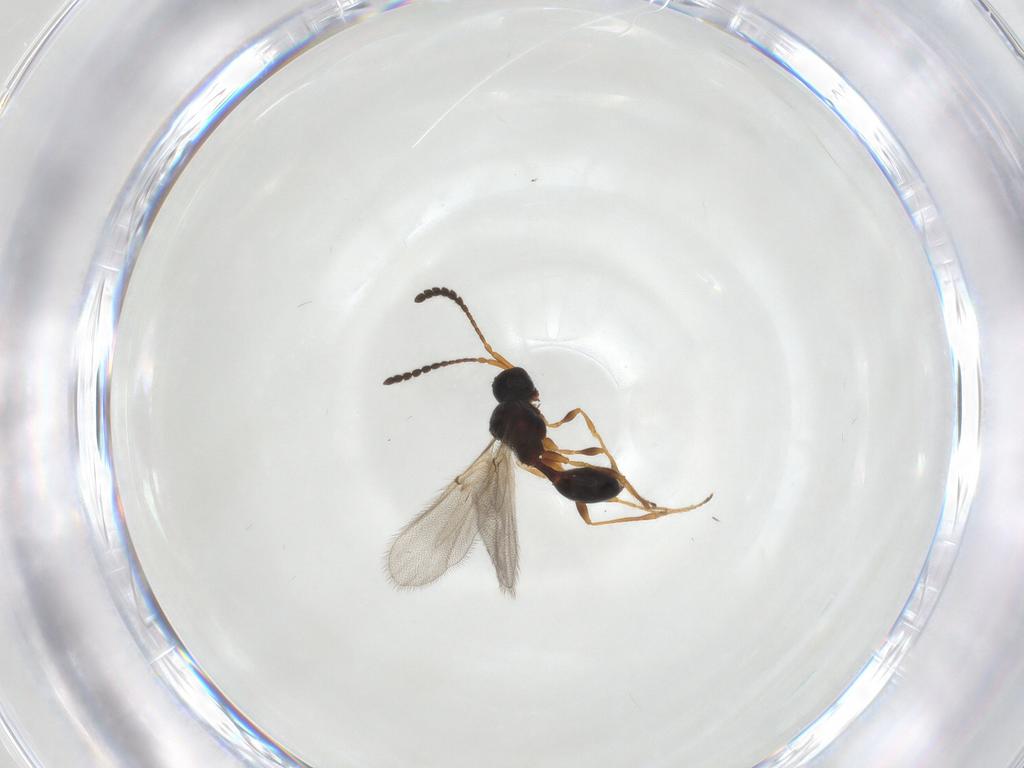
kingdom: Animalia
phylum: Arthropoda
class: Insecta
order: Hymenoptera
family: Diapriidae
